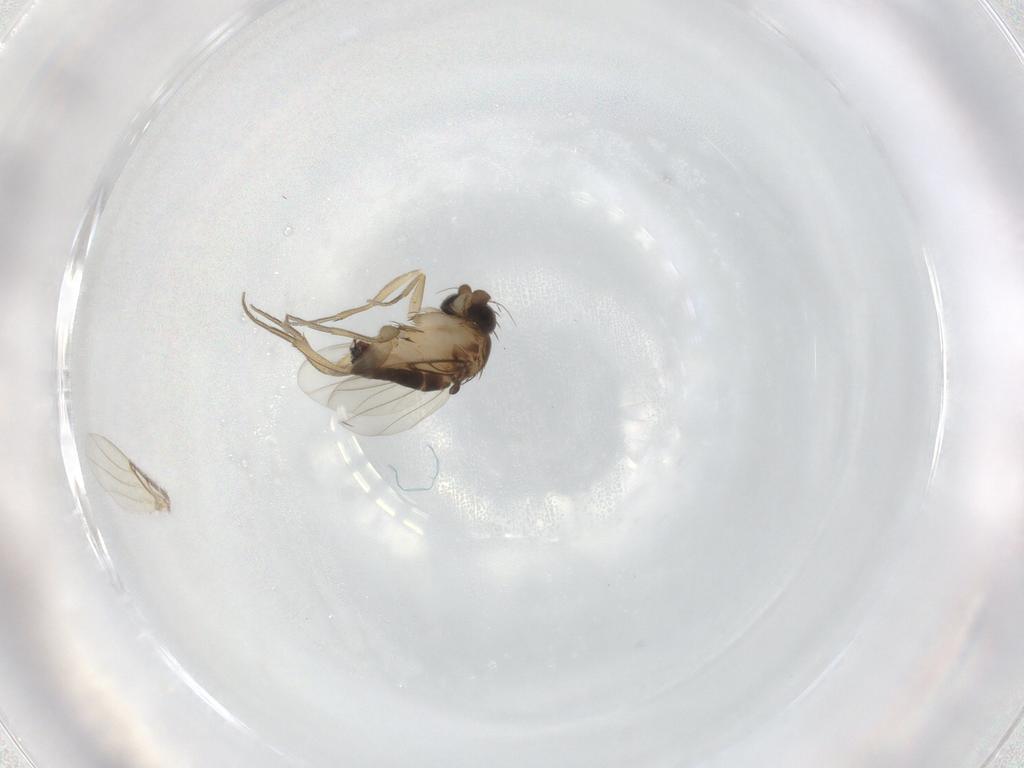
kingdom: Animalia
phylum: Arthropoda
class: Insecta
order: Diptera
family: Phoridae
